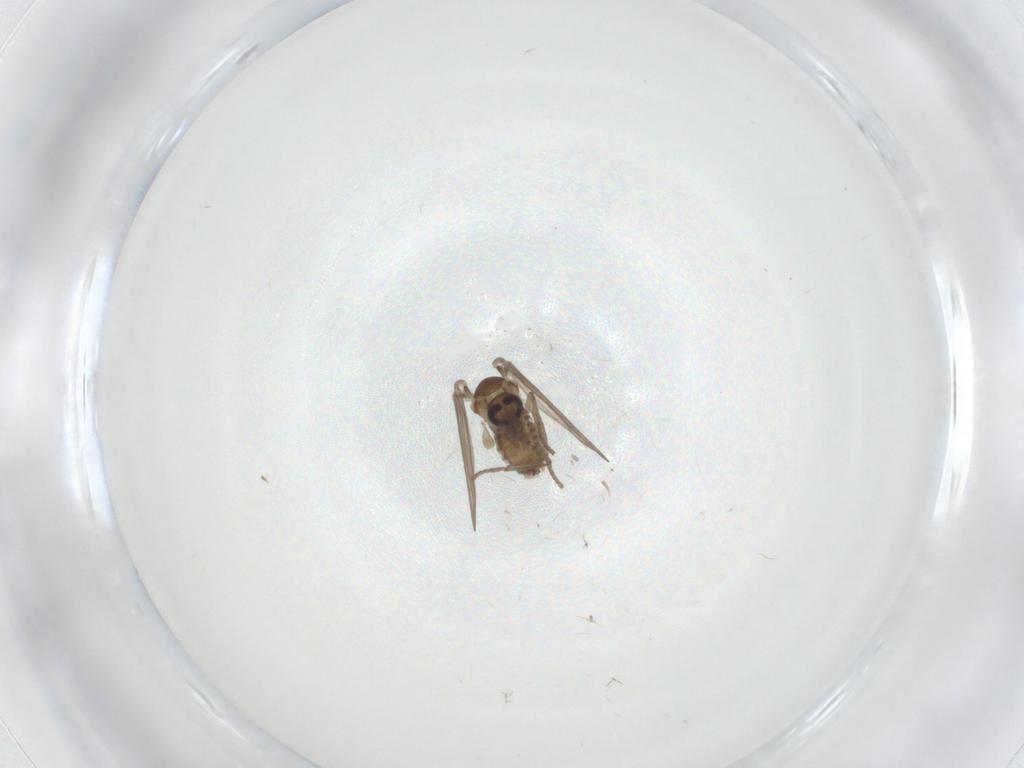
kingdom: Animalia
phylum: Arthropoda
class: Insecta
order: Diptera
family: Psychodidae
